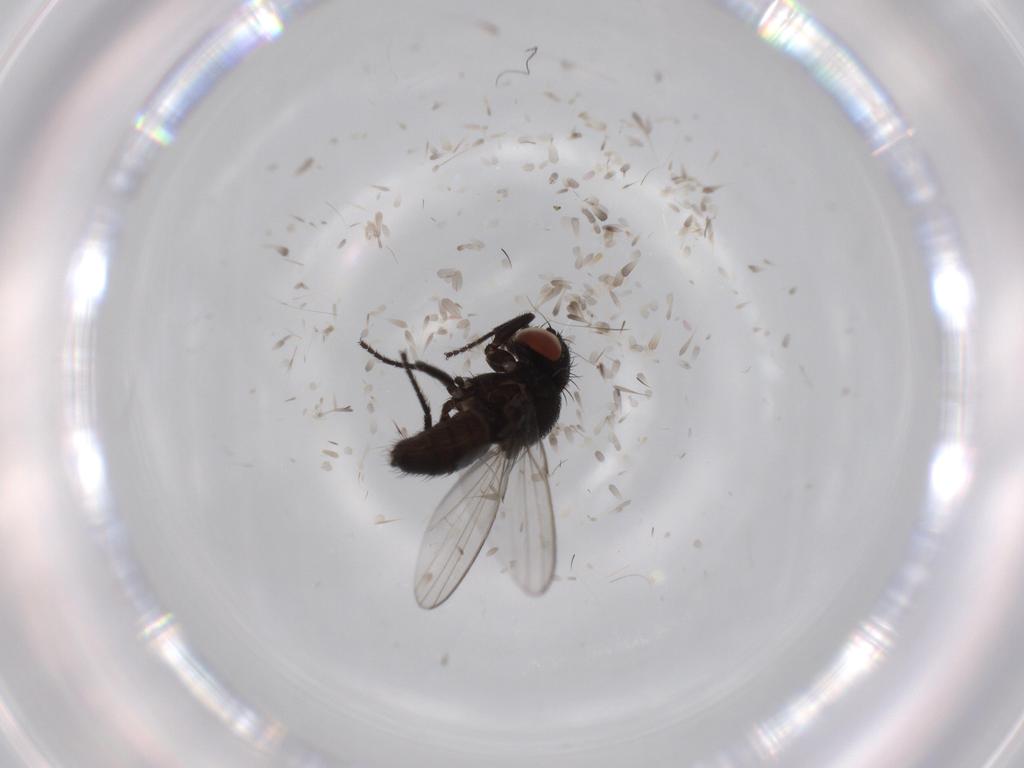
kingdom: Animalia
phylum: Arthropoda
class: Insecta
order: Diptera
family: Milichiidae
